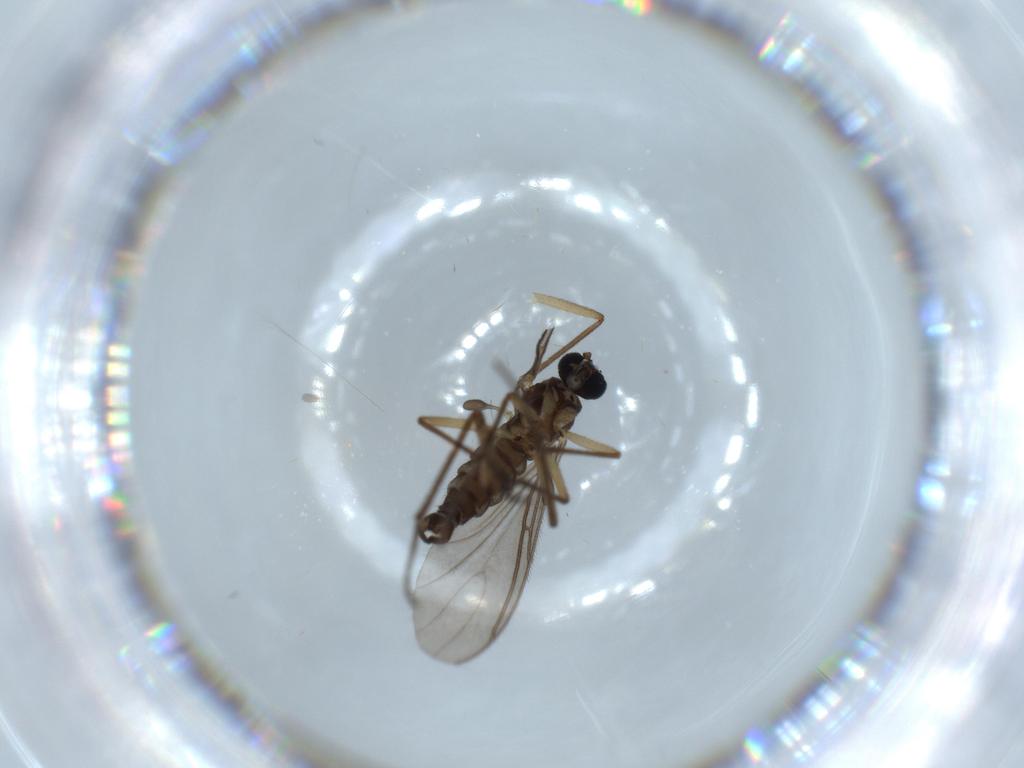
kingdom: Animalia
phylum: Arthropoda
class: Insecta
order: Diptera
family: Sciaridae
